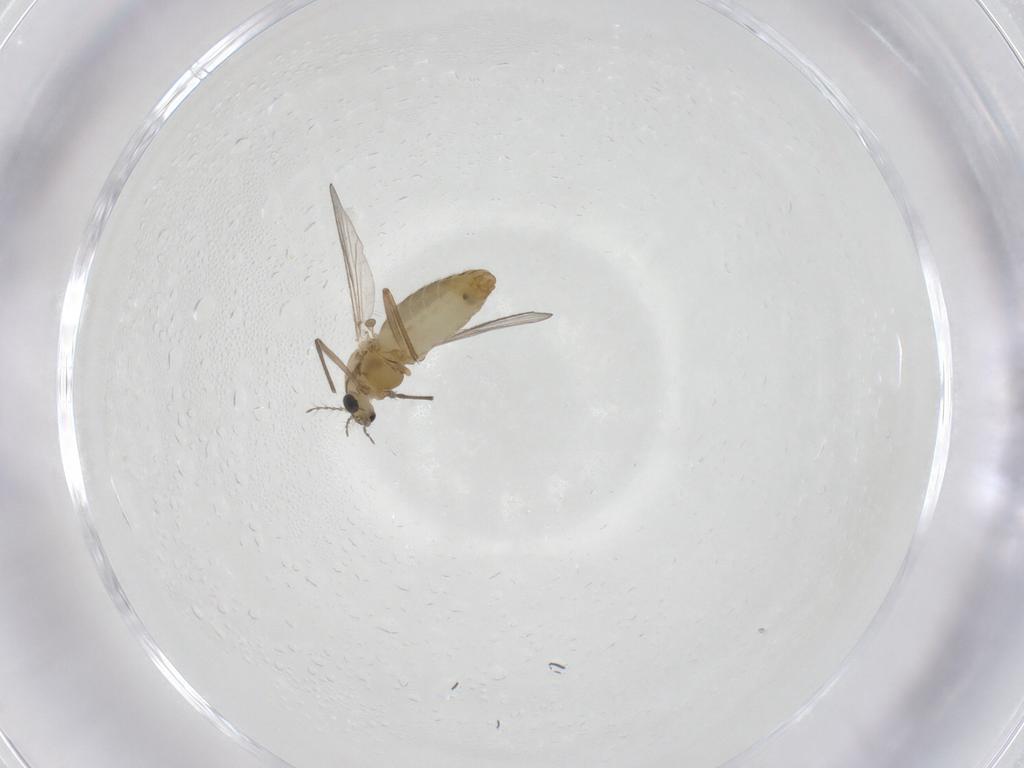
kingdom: Animalia
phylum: Arthropoda
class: Insecta
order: Diptera
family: Chironomidae
